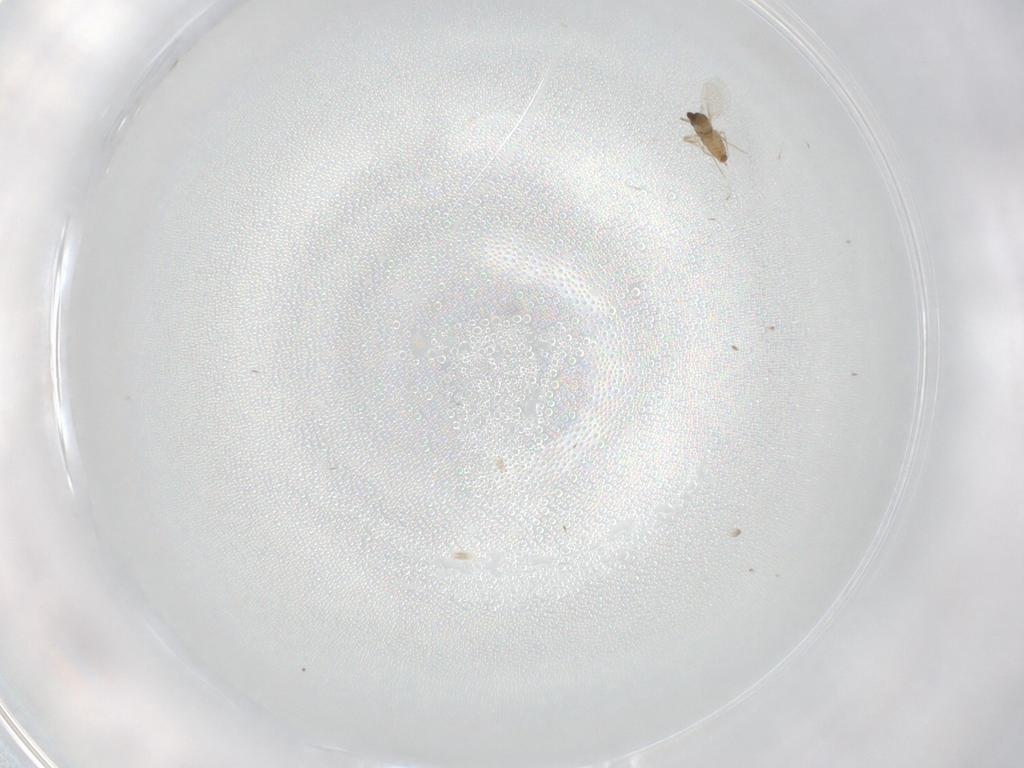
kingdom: Animalia
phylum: Arthropoda
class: Insecta
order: Diptera
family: Cecidomyiidae
